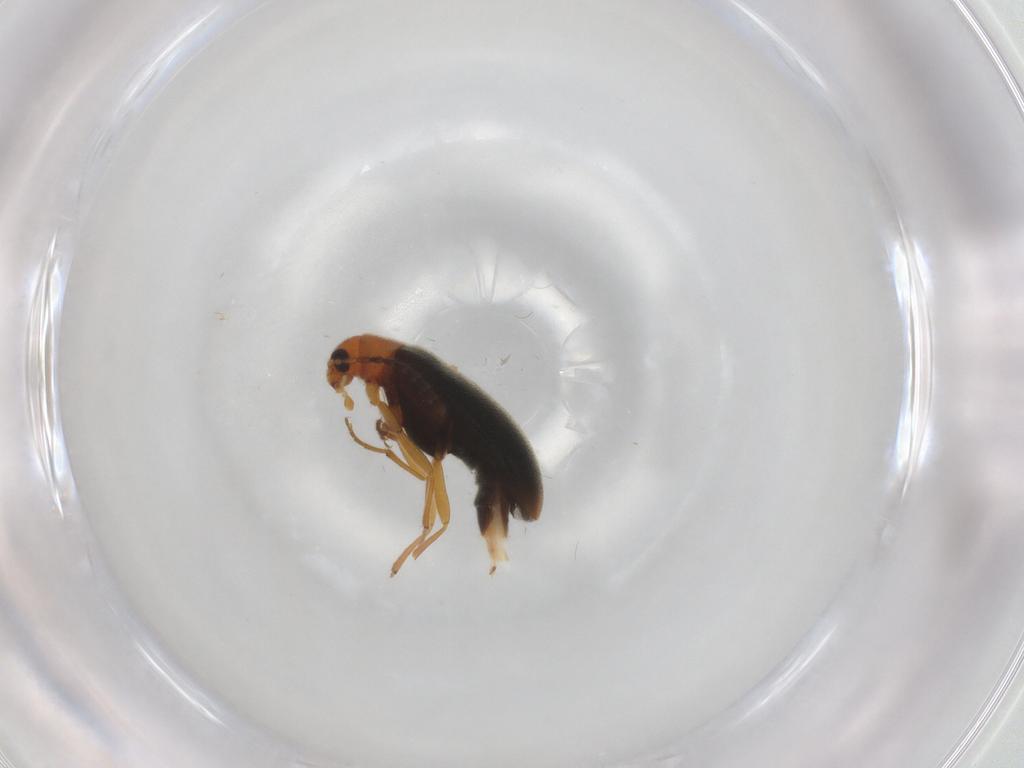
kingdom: Animalia
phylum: Arthropoda
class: Insecta
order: Coleoptera
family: Melandryidae
